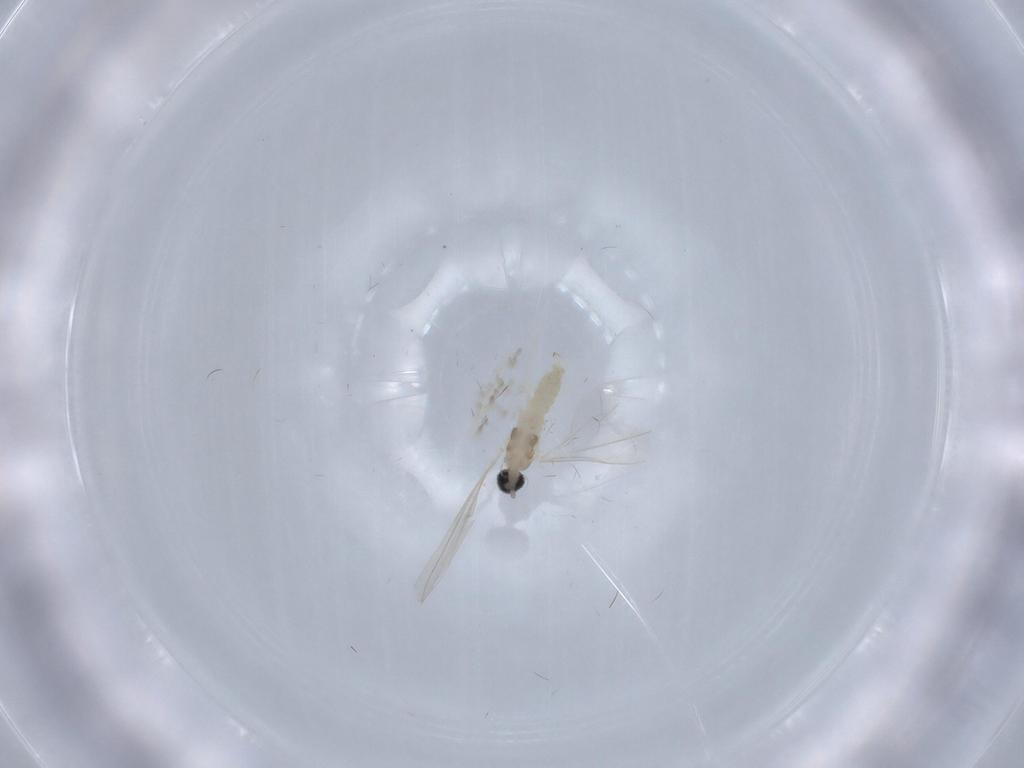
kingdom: Animalia
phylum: Arthropoda
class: Insecta
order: Diptera
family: Cecidomyiidae
